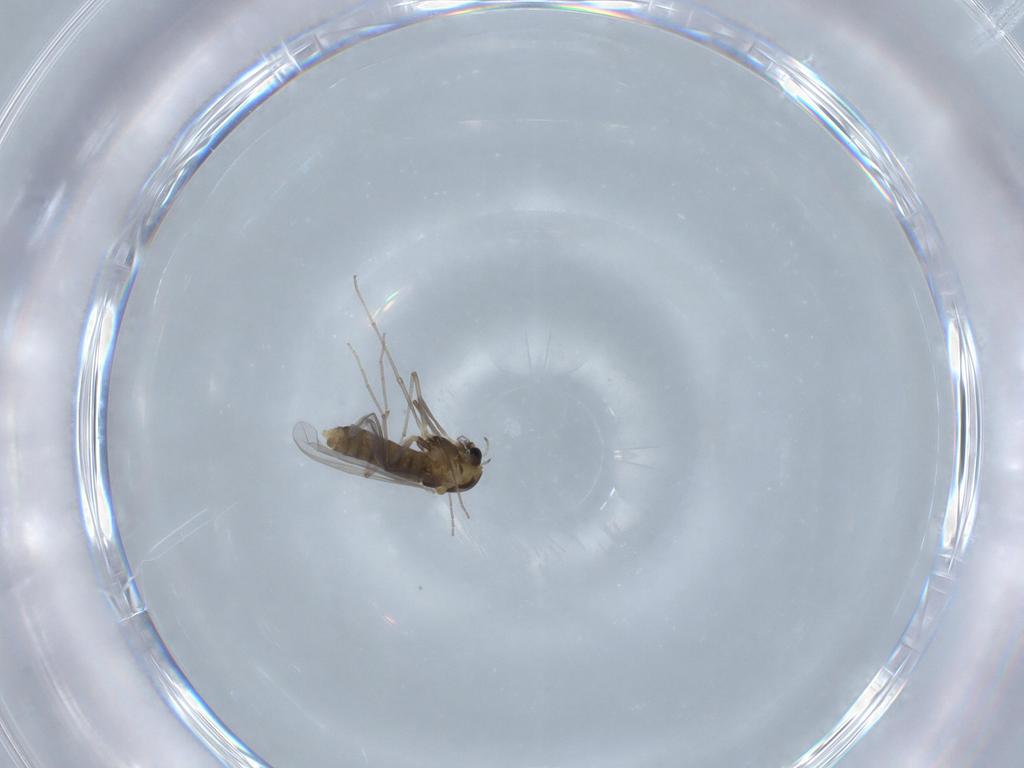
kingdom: Animalia
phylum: Arthropoda
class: Insecta
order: Diptera
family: Chironomidae
